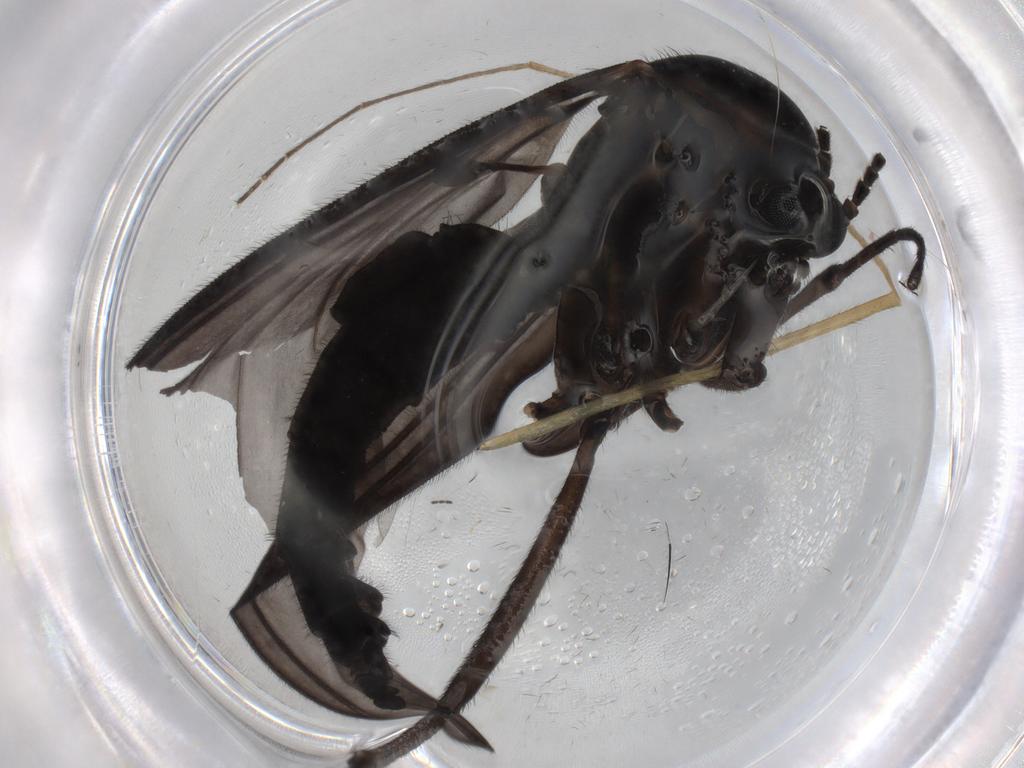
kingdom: Animalia
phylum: Arthropoda
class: Insecta
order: Diptera
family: Sciaridae
